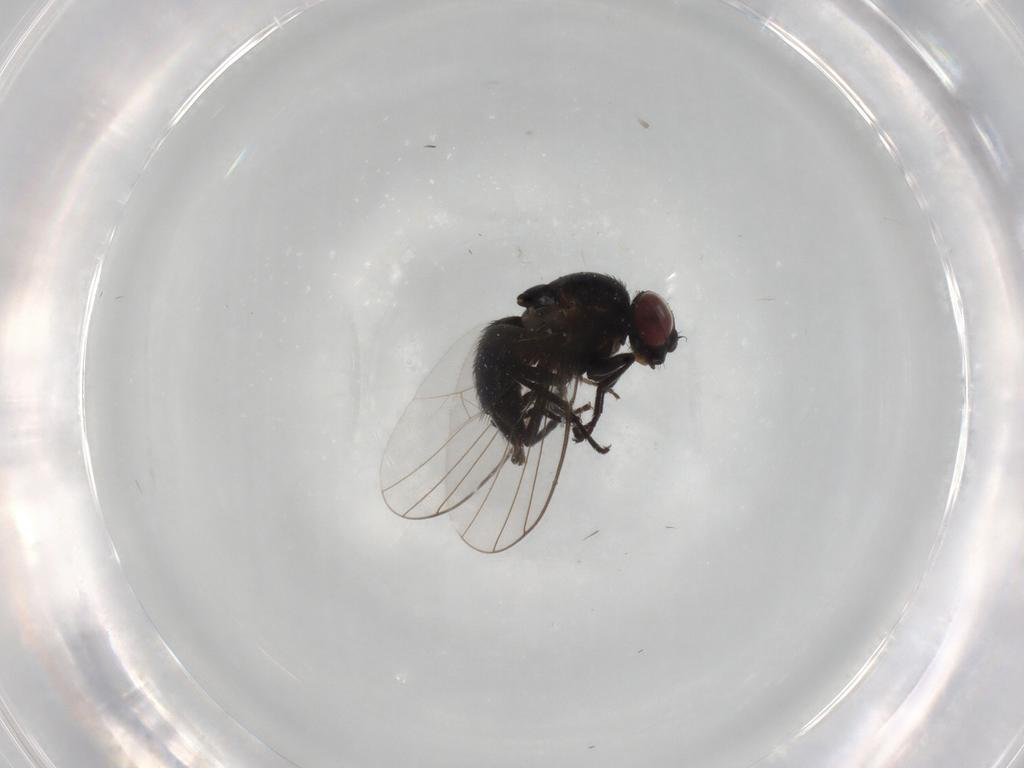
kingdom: Animalia
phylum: Arthropoda
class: Insecta
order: Diptera
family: Agromyzidae
